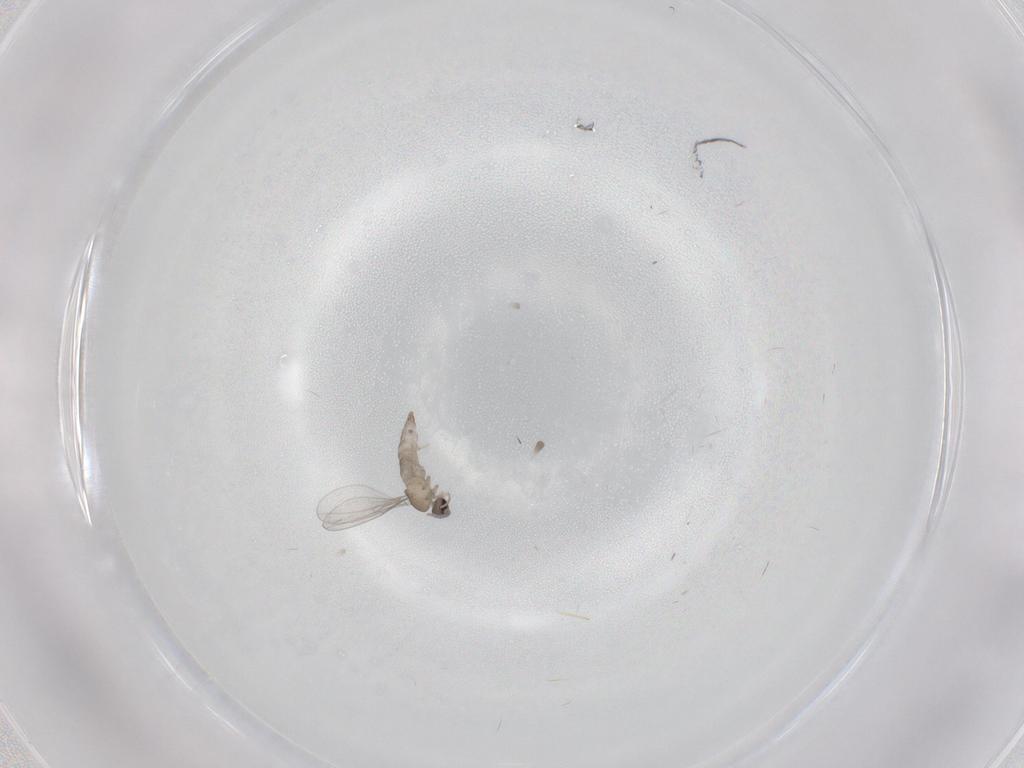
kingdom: Animalia
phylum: Arthropoda
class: Insecta
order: Diptera
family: Cecidomyiidae
